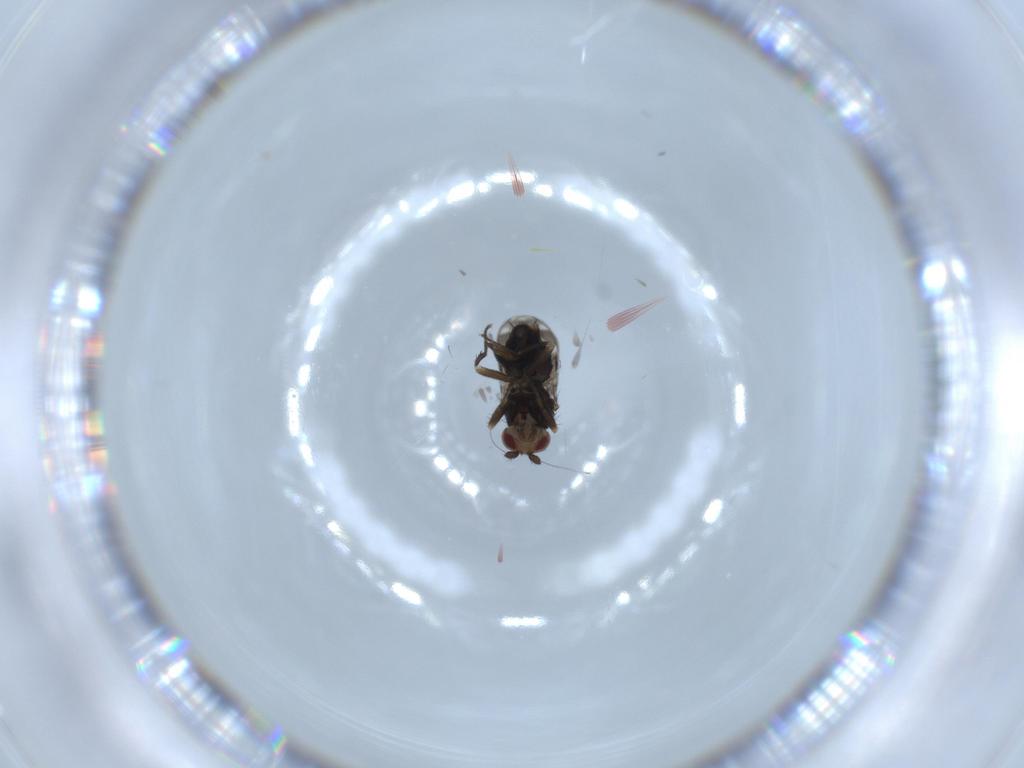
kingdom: Animalia
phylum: Arthropoda
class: Insecta
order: Diptera
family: Sphaeroceridae
